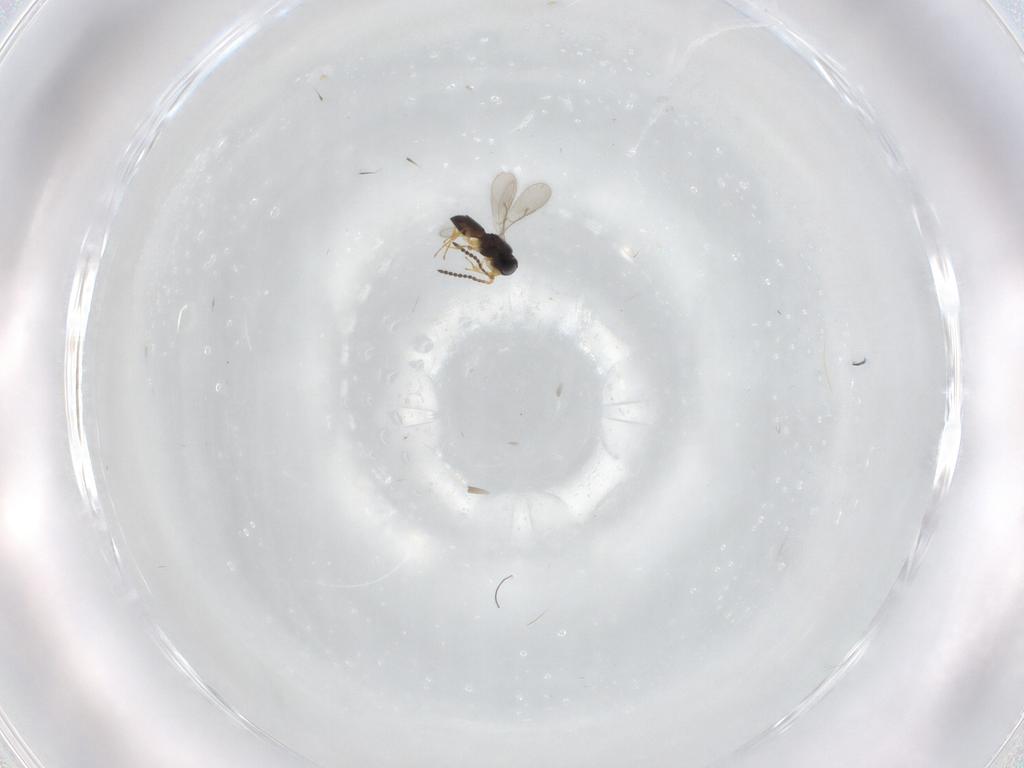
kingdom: Animalia
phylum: Arthropoda
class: Insecta
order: Hymenoptera
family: Scelionidae
